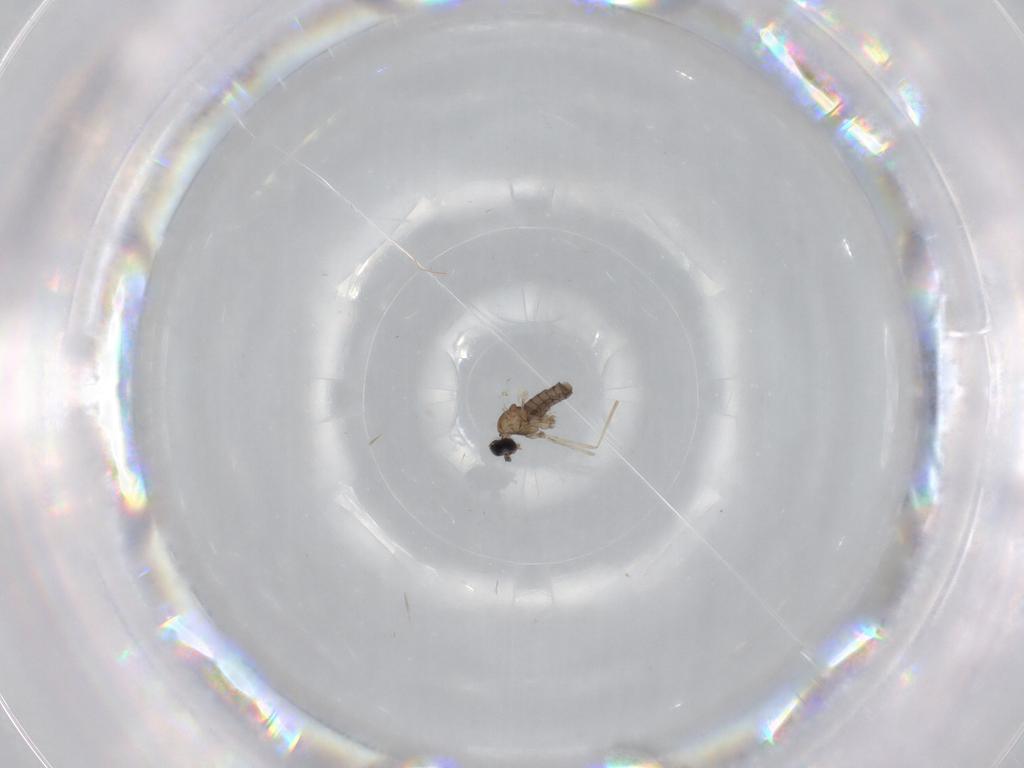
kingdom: Animalia
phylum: Arthropoda
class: Insecta
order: Diptera
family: Cecidomyiidae
